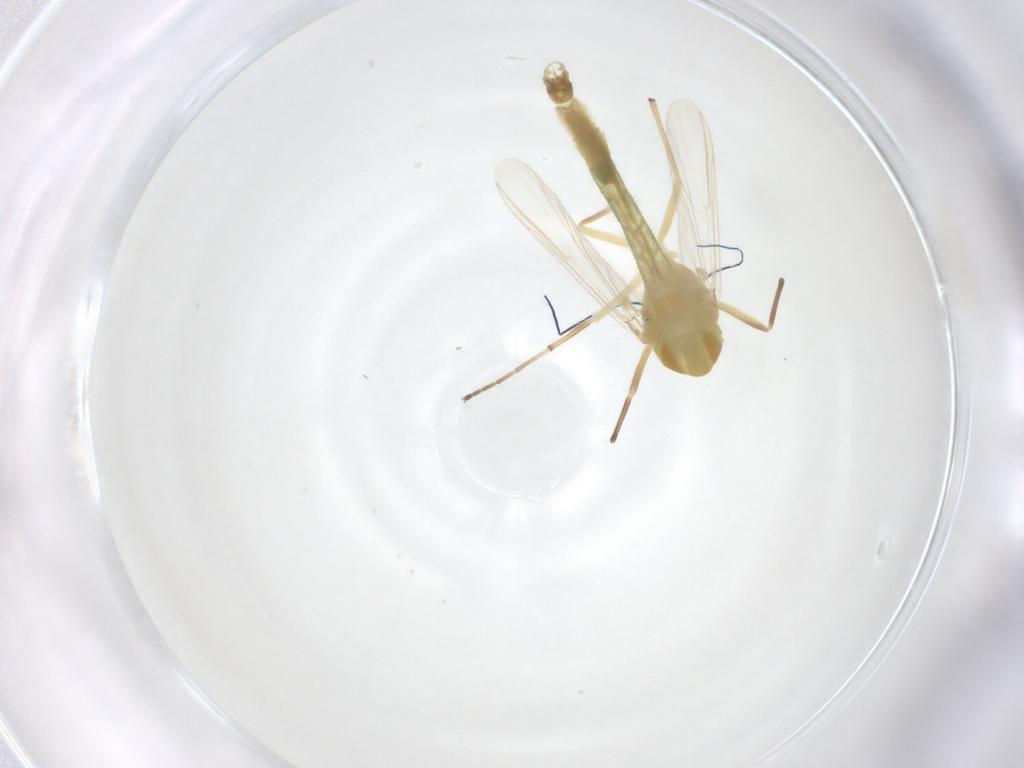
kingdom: Animalia
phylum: Arthropoda
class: Insecta
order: Diptera
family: Chironomidae
